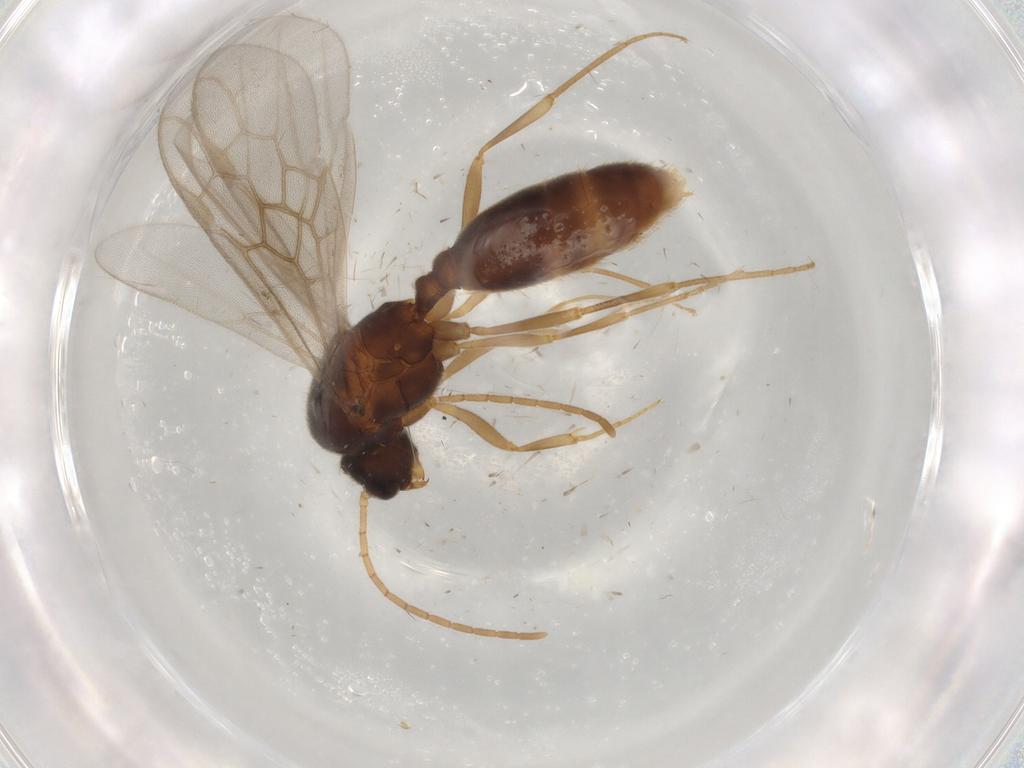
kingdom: Animalia
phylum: Arthropoda
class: Insecta
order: Hymenoptera
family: Formicidae
